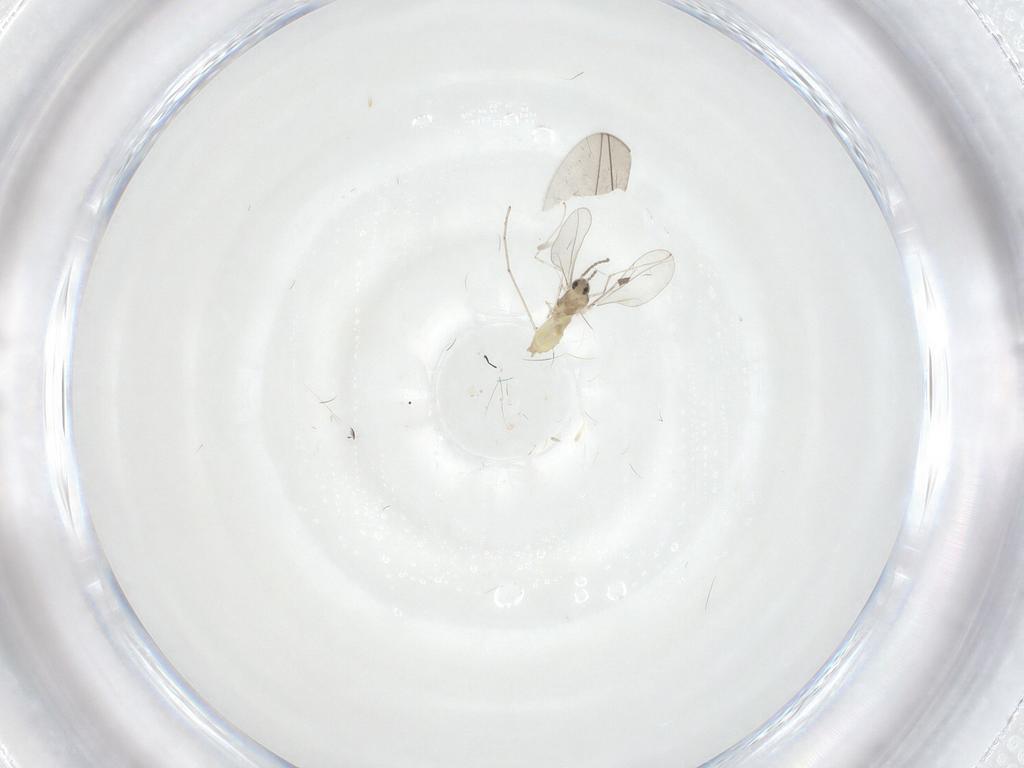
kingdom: Animalia
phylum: Arthropoda
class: Insecta
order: Diptera
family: Cecidomyiidae
